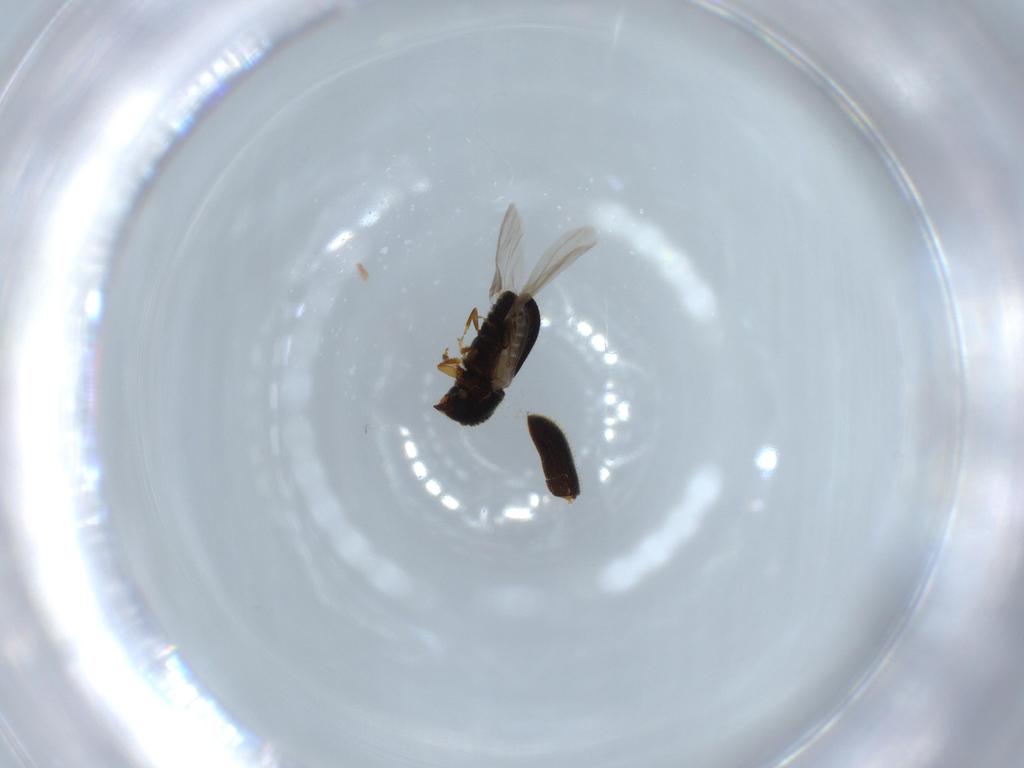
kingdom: Animalia
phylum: Arthropoda
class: Insecta
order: Coleoptera
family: Curculionidae
